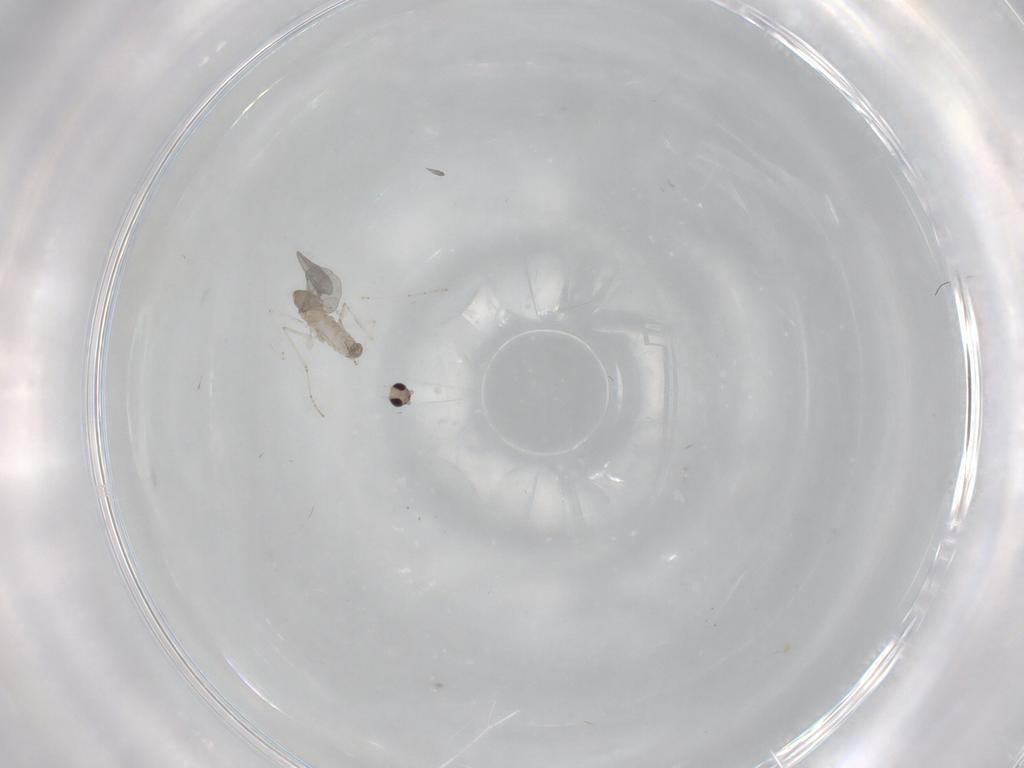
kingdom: Animalia
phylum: Arthropoda
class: Insecta
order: Diptera
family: Cecidomyiidae
